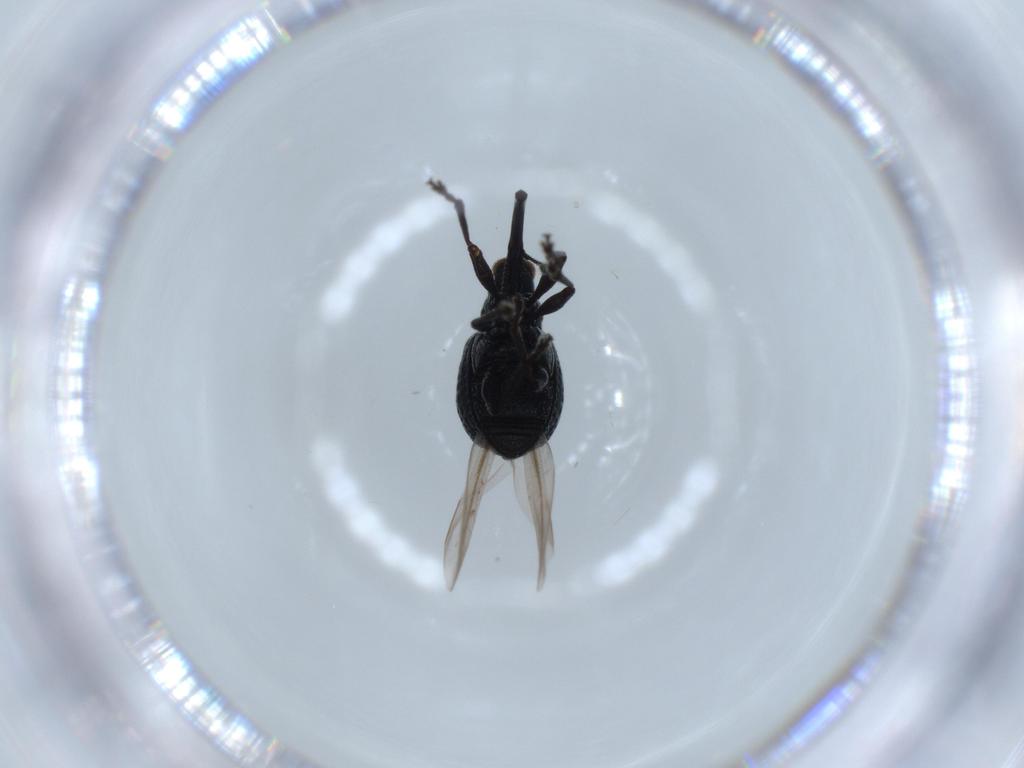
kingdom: Animalia
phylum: Arthropoda
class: Insecta
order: Coleoptera
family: Brentidae
